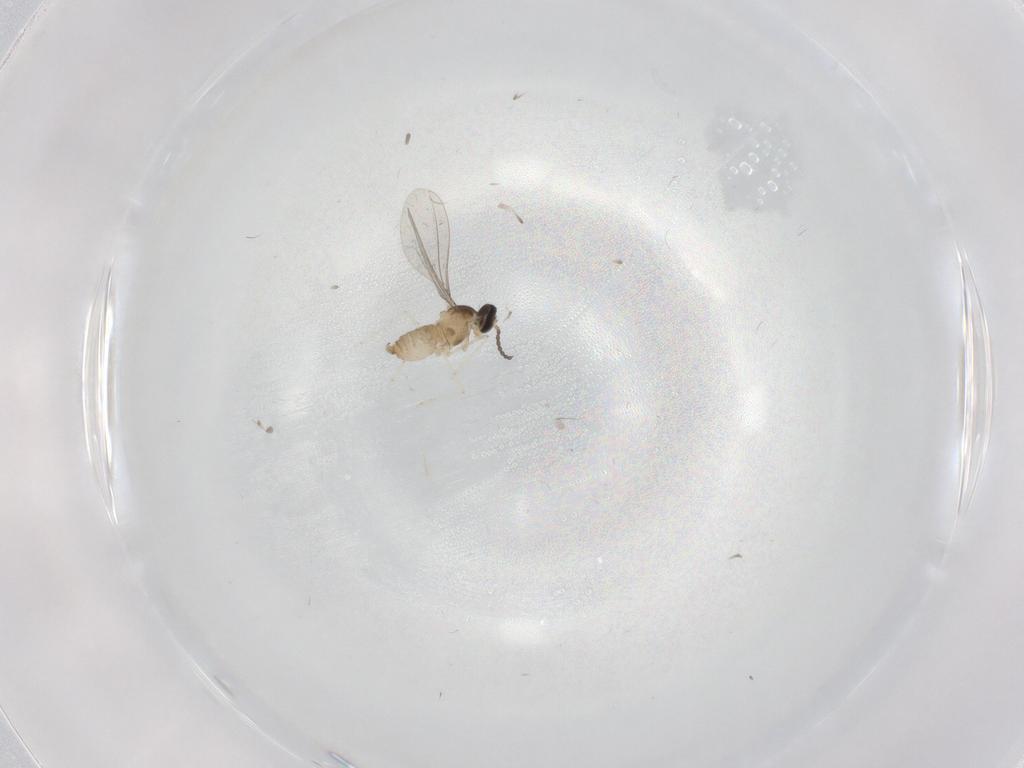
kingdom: Animalia
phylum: Arthropoda
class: Insecta
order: Diptera
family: Cecidomyiidae
